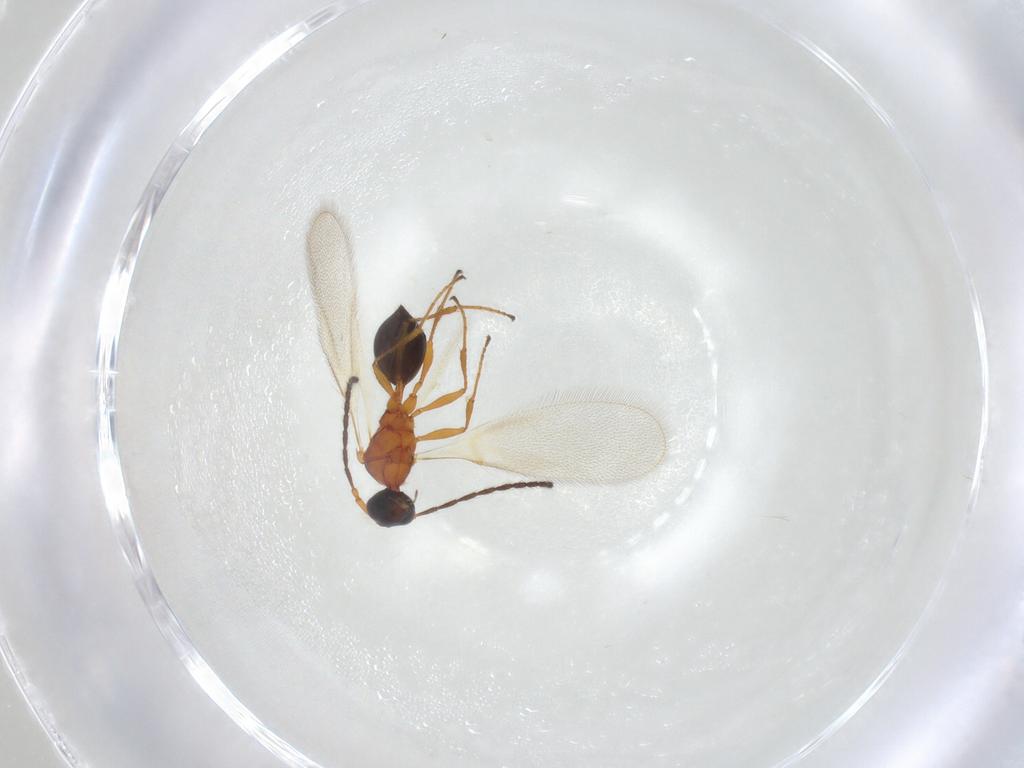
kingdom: Animalia
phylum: Arthropoda
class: Insecta
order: Hymenoptera
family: Diapriidae
